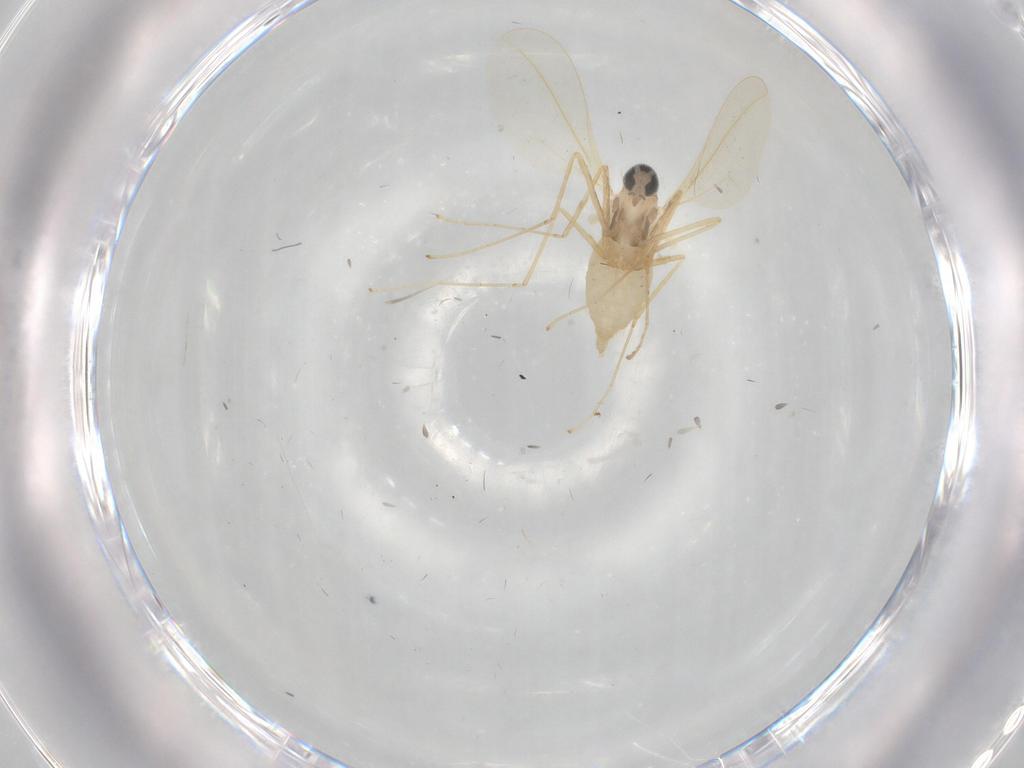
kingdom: Animalia
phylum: Arthropoda
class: Insecta
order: Diptera
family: Cecidomyiidae
